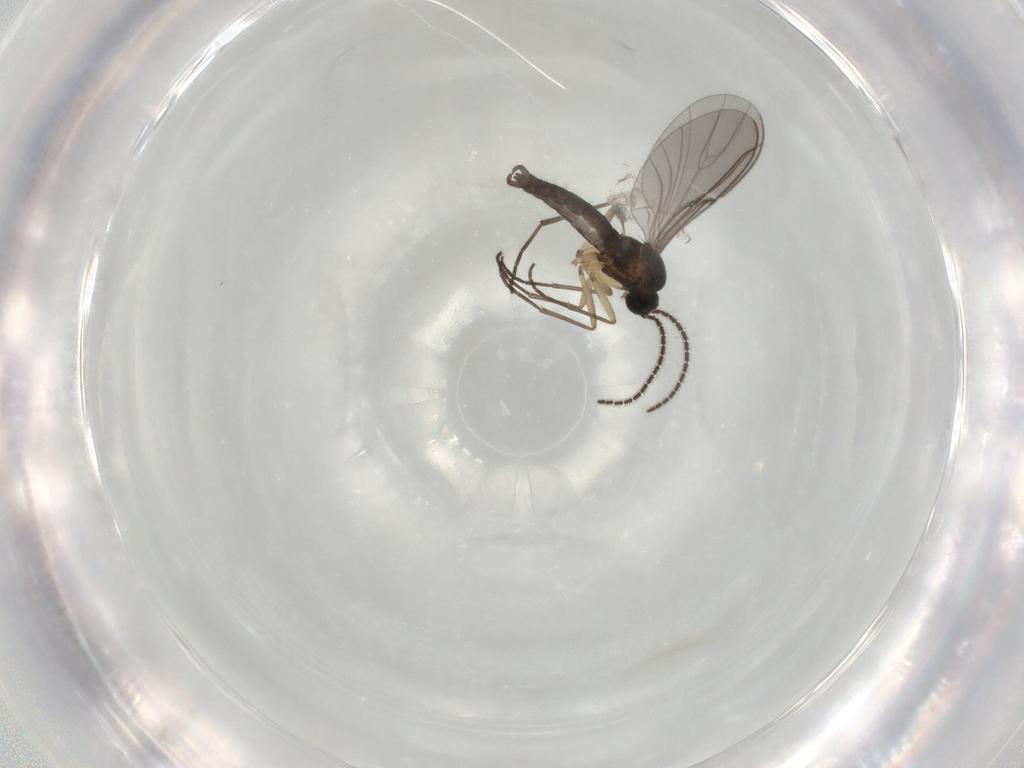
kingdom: Animalia
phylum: Arthropoda
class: Insecta
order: Diptera
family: Sciaridae
